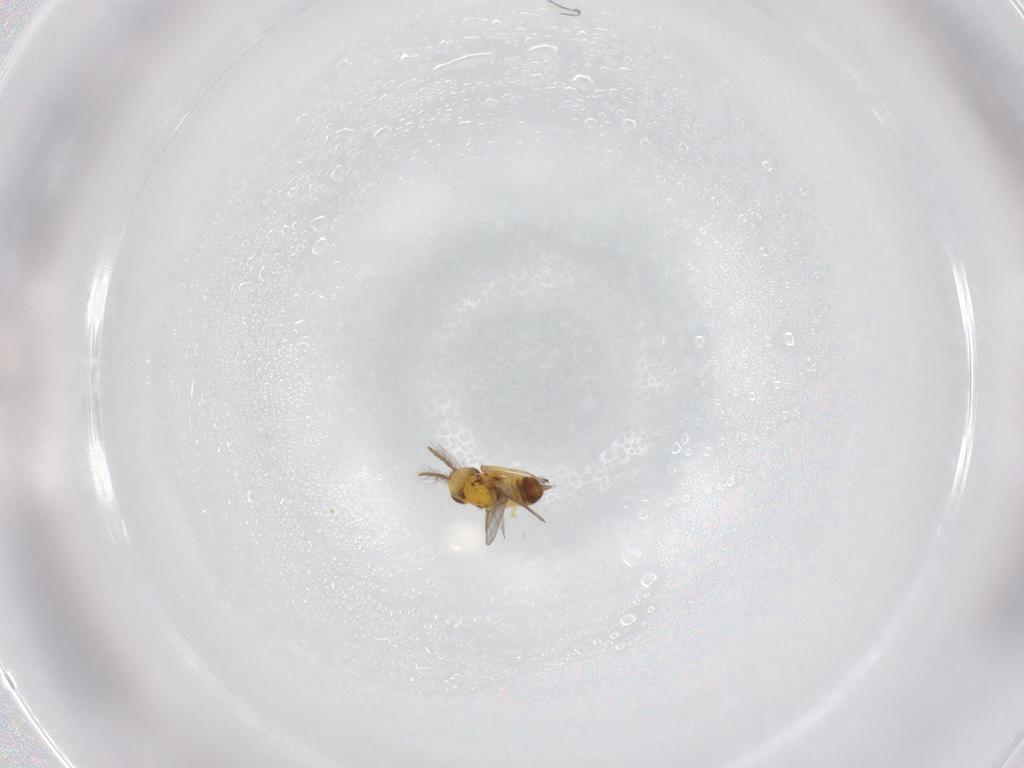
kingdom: Animalia
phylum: Arthropoda
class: Insecta
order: Hymenoptera
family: Eulophidae
